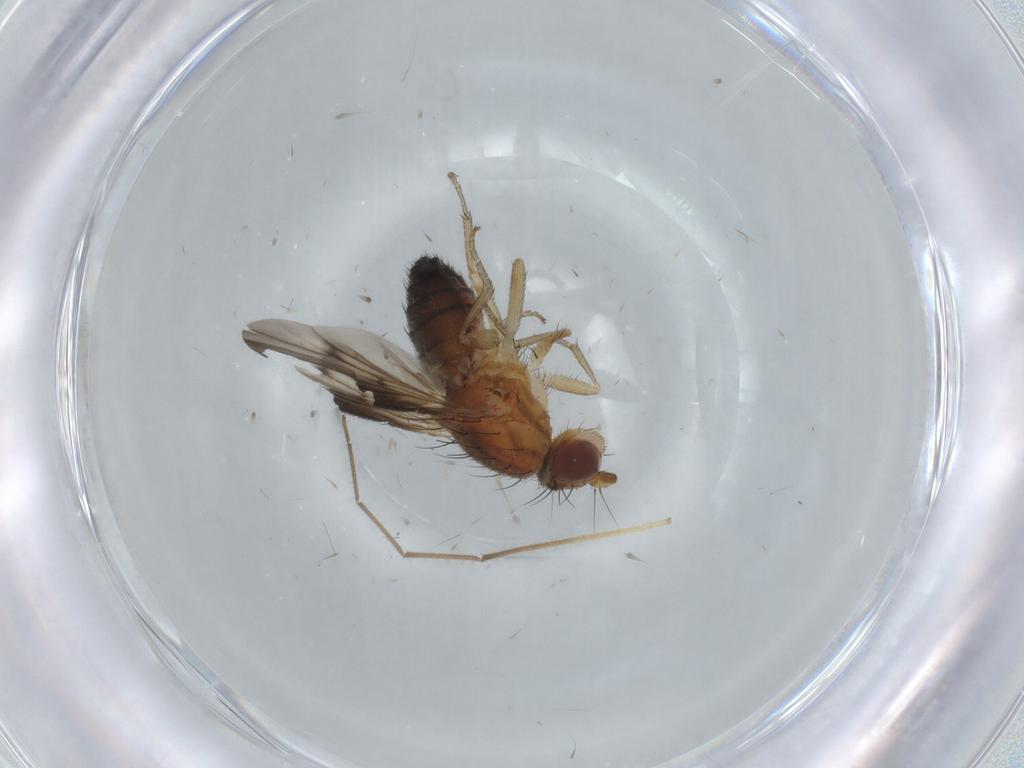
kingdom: Animalia
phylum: Arthropoda
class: Insecta
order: Diptera
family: Heleomyzidae
